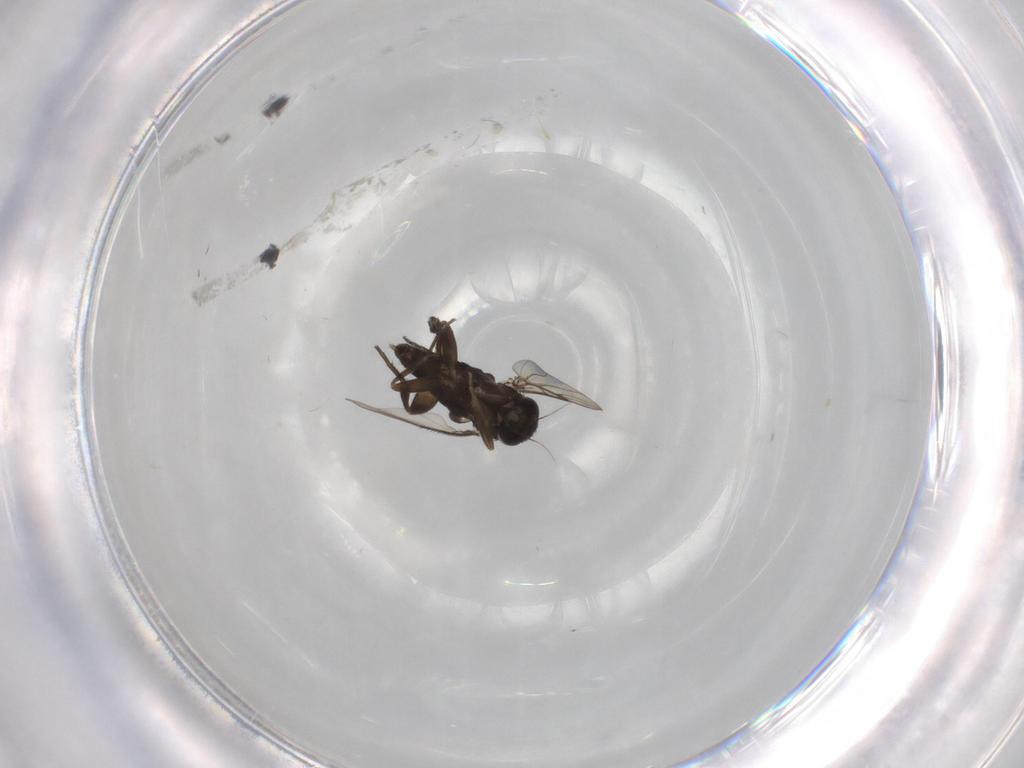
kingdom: Animalia
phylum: Arthropoda
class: Insecta
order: Diptera
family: Phoridae
